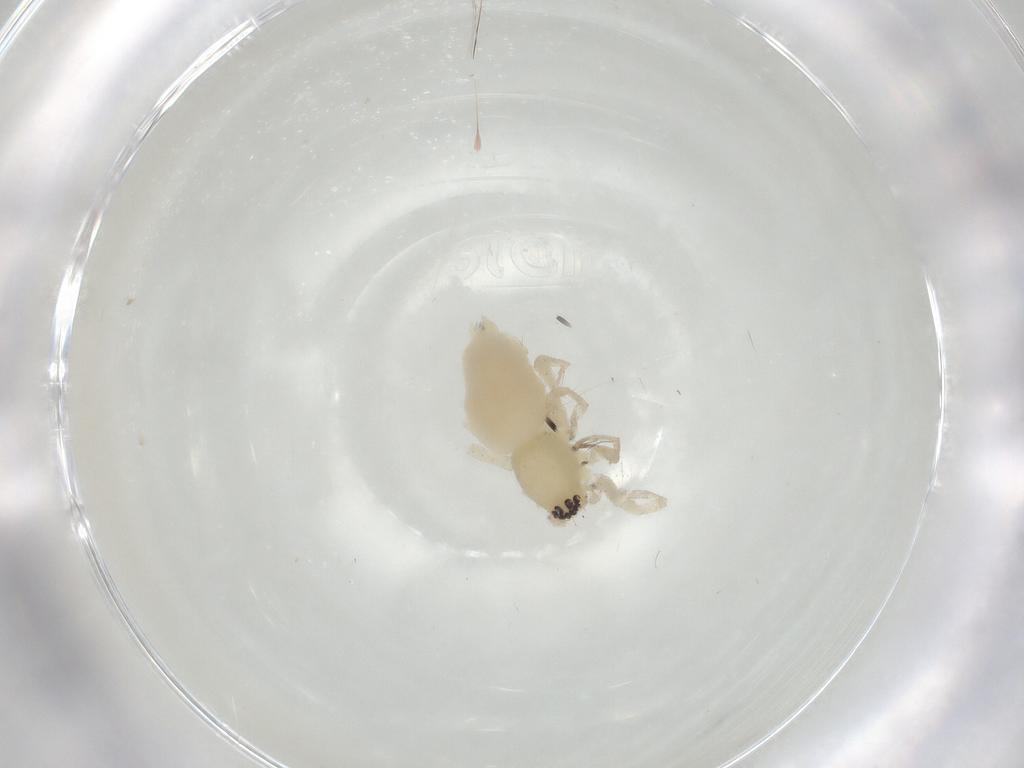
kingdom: Animalia
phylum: Arthropoda
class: Arachnida
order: Araneae
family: Clubionidae
